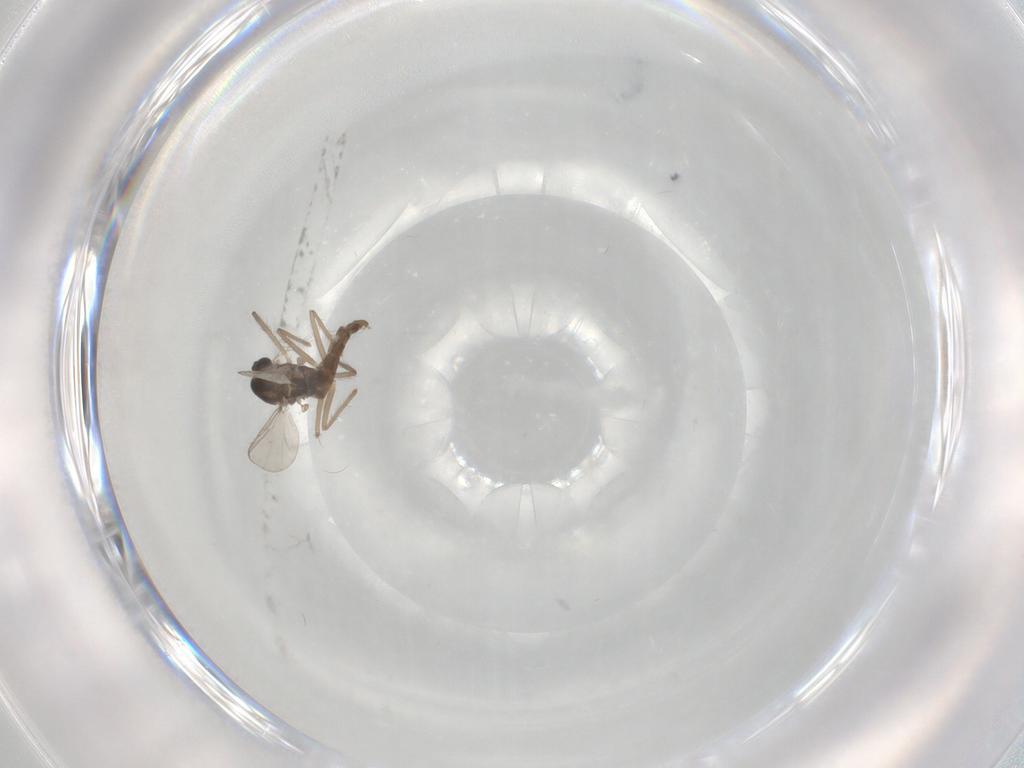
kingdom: Animalia
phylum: Arthropoda
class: Insecta
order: Diptera
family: Chironomidae
